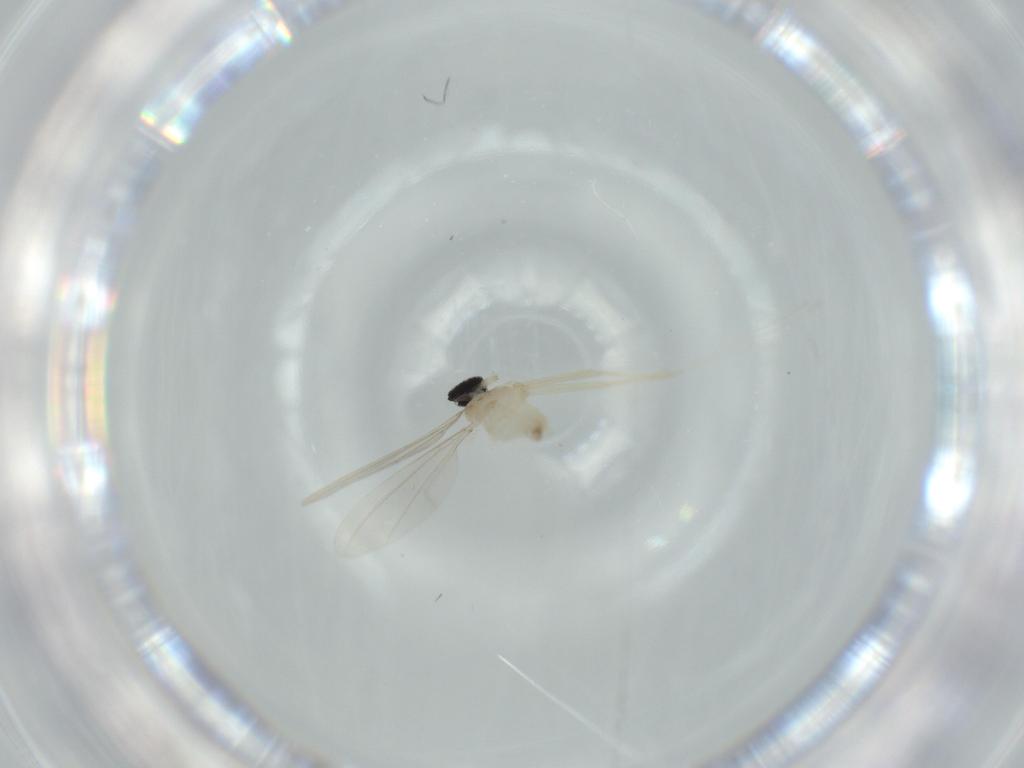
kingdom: Animalia
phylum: Arthropoda
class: Insecta
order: Diptera
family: Cecidomyiidae
